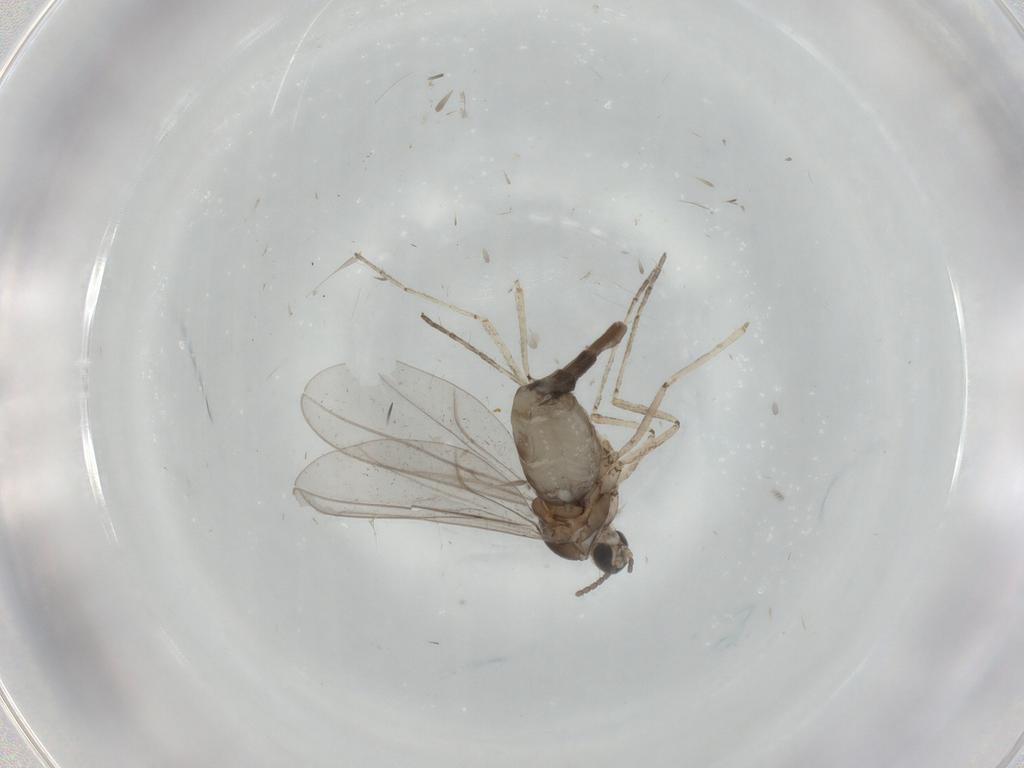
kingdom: Animalia
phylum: Arthropoda
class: Insecta
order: Diptera
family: Cecidomyiidae
